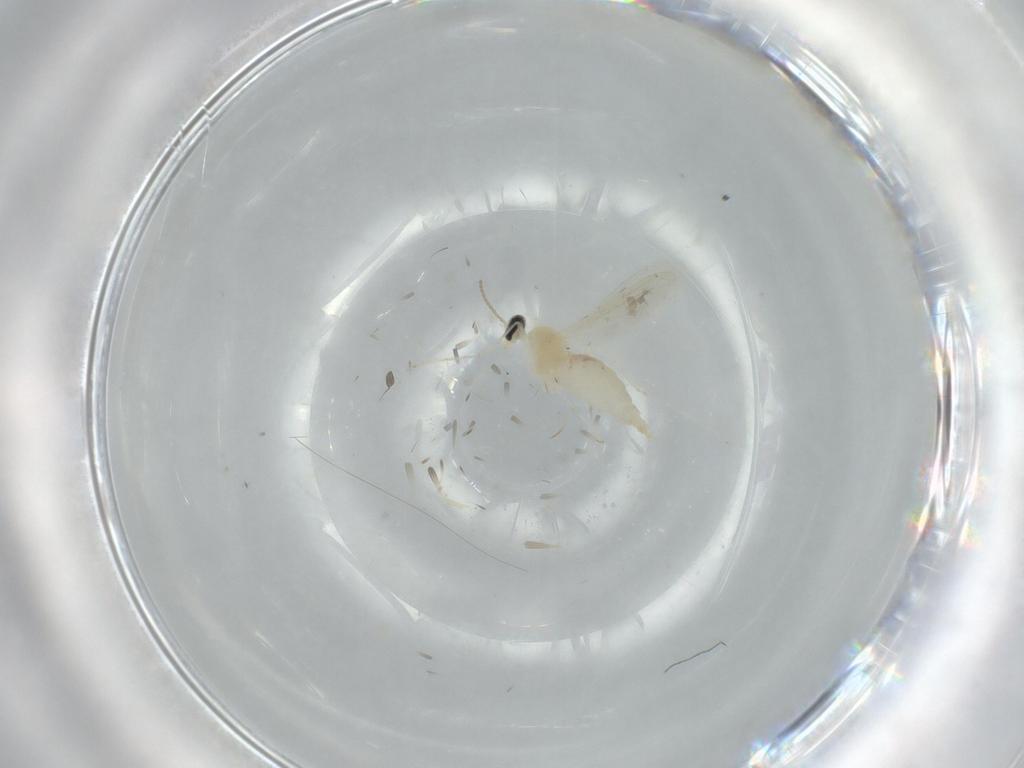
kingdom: Animalia
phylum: Arthropoda
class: Insecta
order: Diptera
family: Cecidomyiidae
